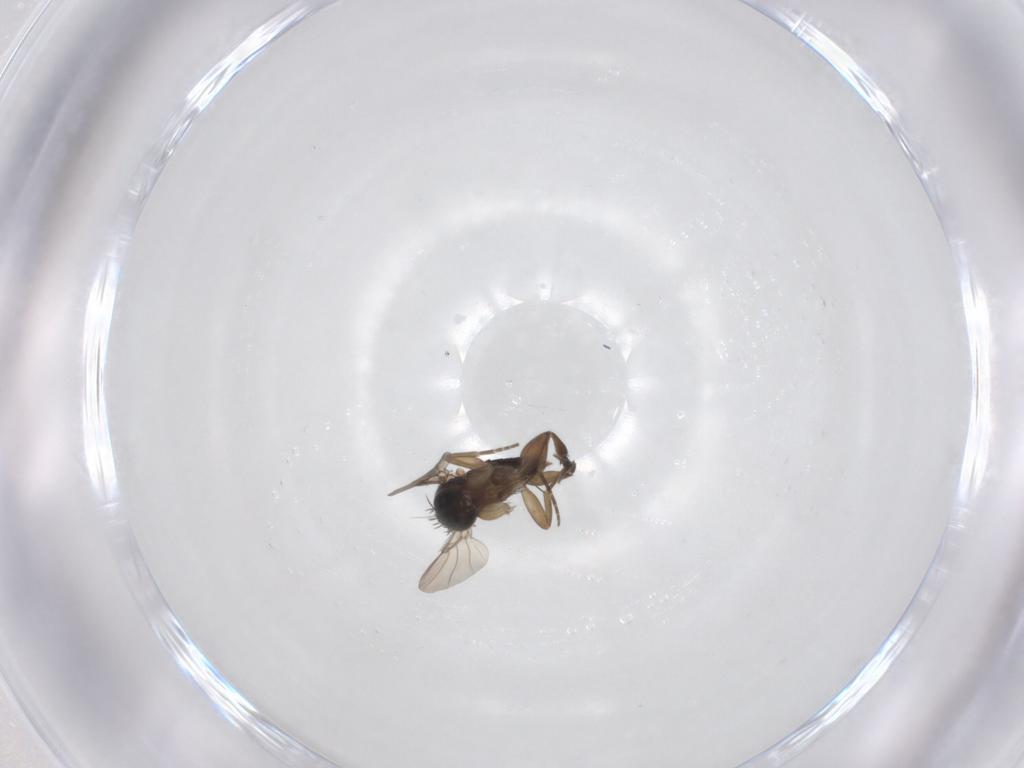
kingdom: Animalia
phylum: Arthropoda
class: Insecta
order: Diptera
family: Phoridae
